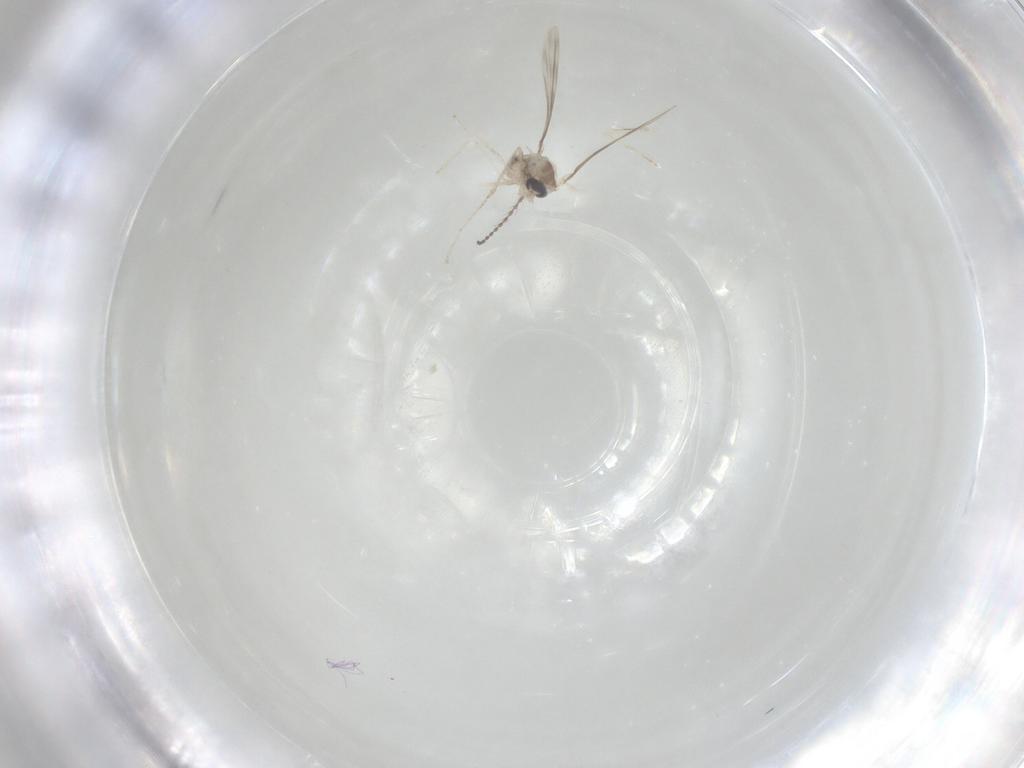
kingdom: Animalia
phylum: Arthropoda
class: Insecta
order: Diptera
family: Cecidomyiidae
